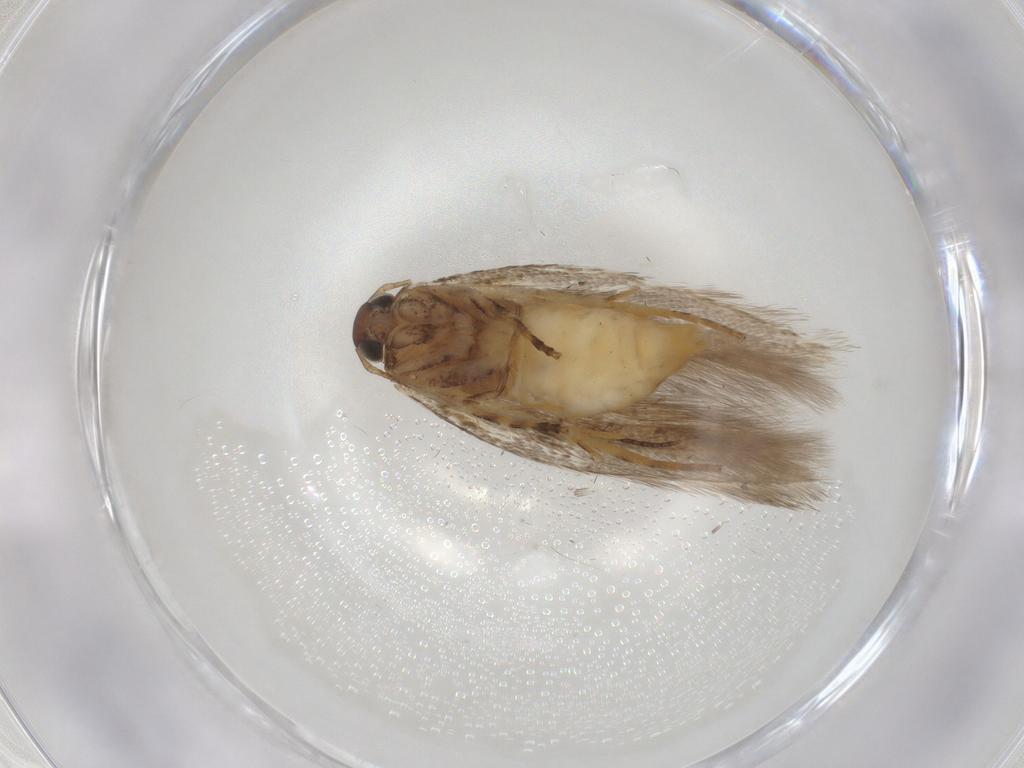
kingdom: Animalia
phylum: Arthropoda
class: Insecta
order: Lepidoptera
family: Gelechiidae
